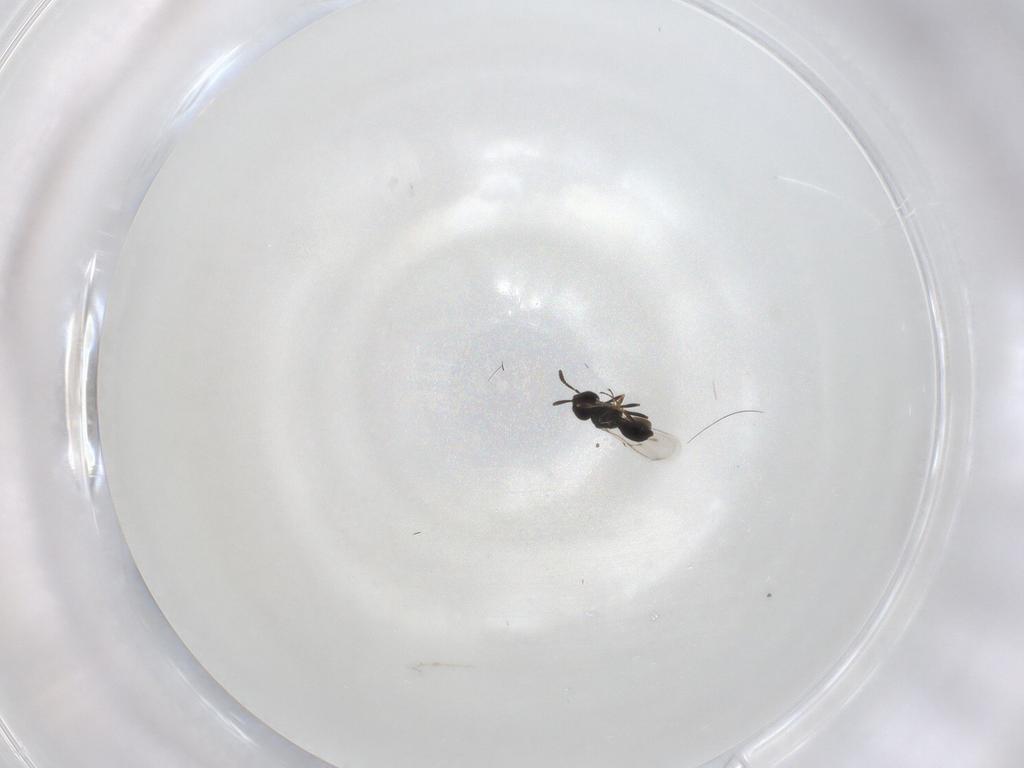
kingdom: Animalia
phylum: Arthropoda
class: Insecta
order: Hymenoptera
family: Scelionidae
